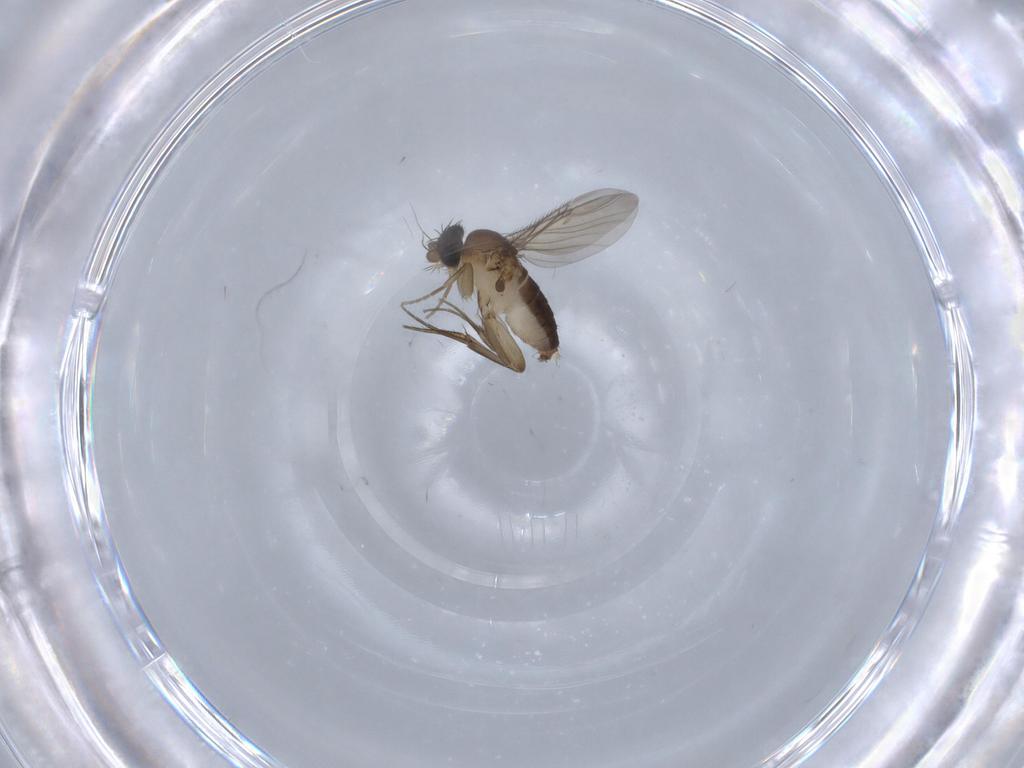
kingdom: Animalia
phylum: Arthropoda
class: Insecta
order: Diptera
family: Phoridae
